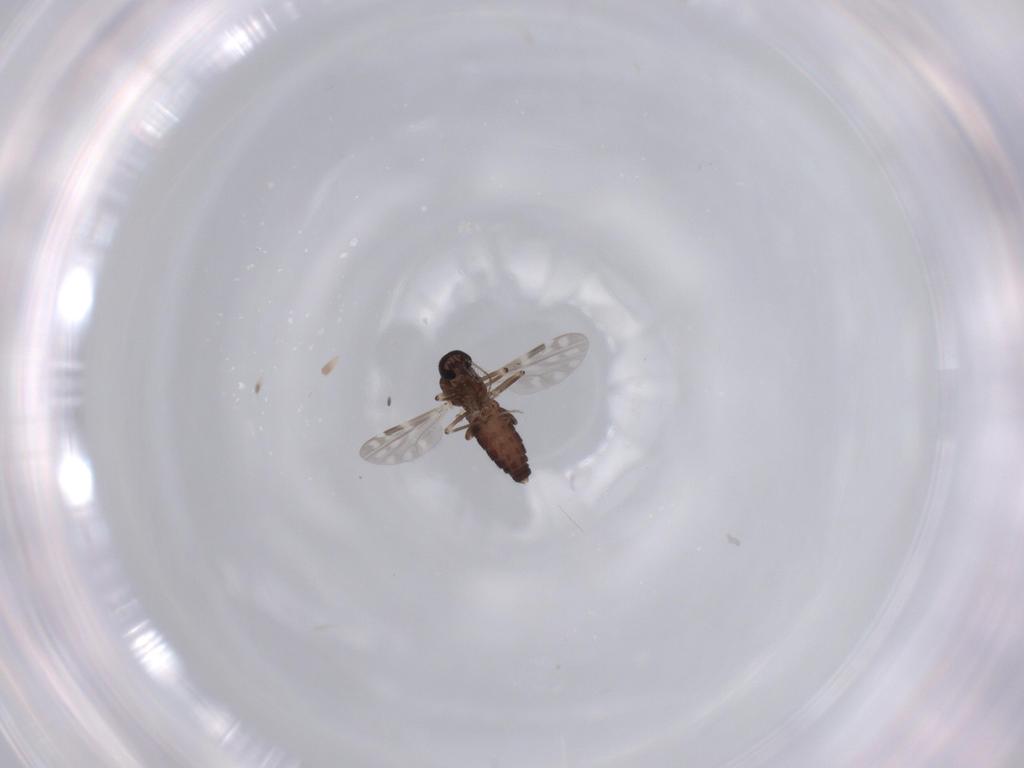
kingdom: Animalia
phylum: Arthropoda
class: Insecta
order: Diptera
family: Ceratopogonidae
